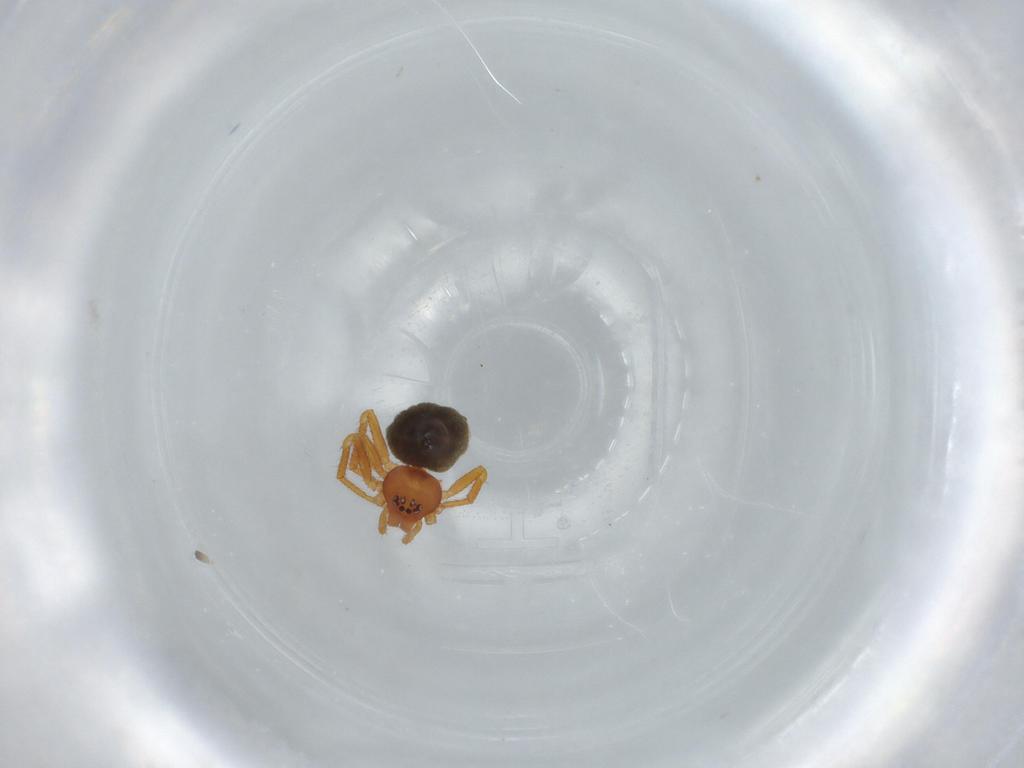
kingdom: Animalia
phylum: Arthropoda
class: Arachnida
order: Araneae
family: Theridiidae
